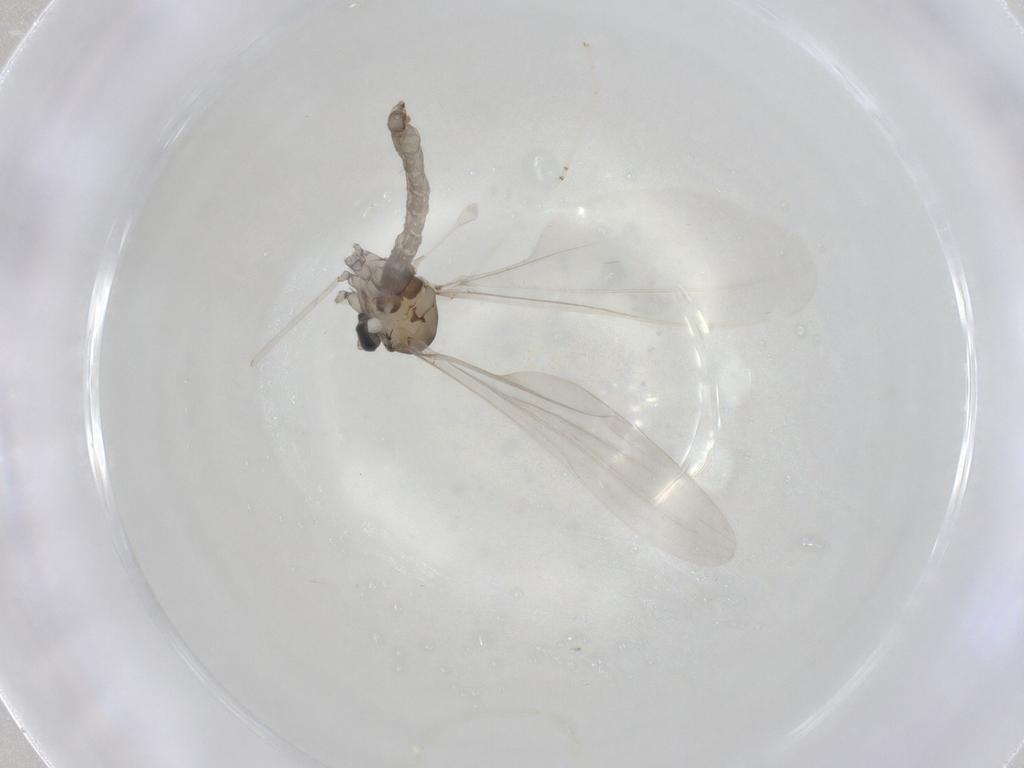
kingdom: Animalia
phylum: Arthropoda
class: Insecta
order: Diptera
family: Cecidomyiidae
